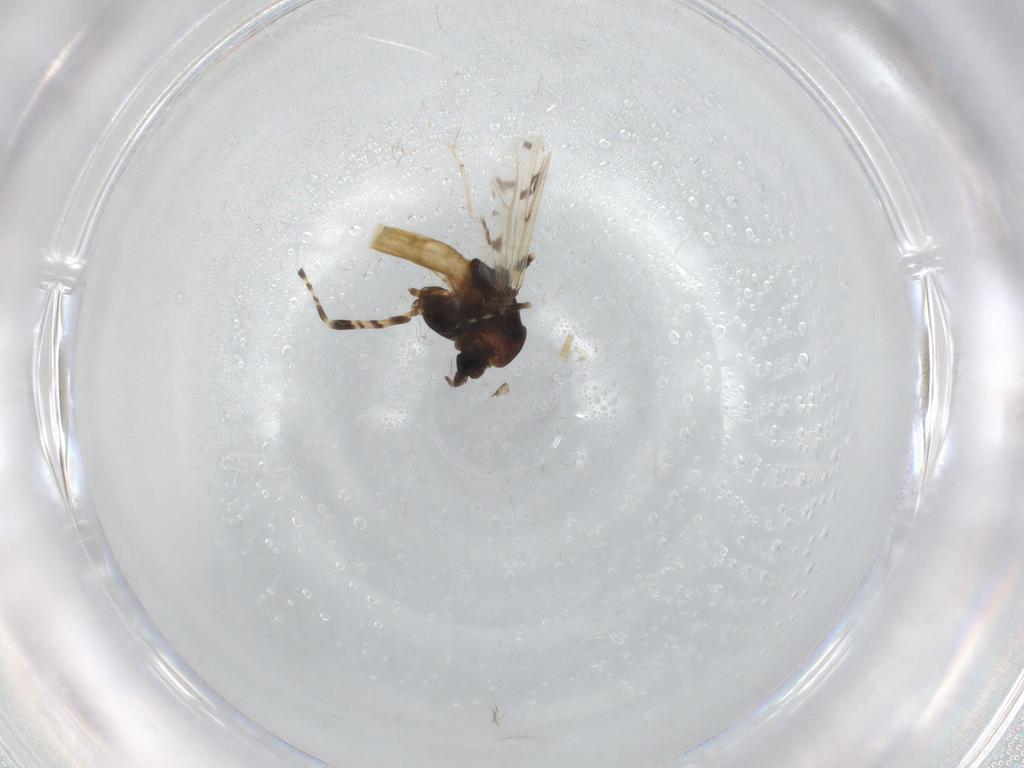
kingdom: Animalia
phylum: Arthropoda
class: Insecta
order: Diptera
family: Chironomidae
